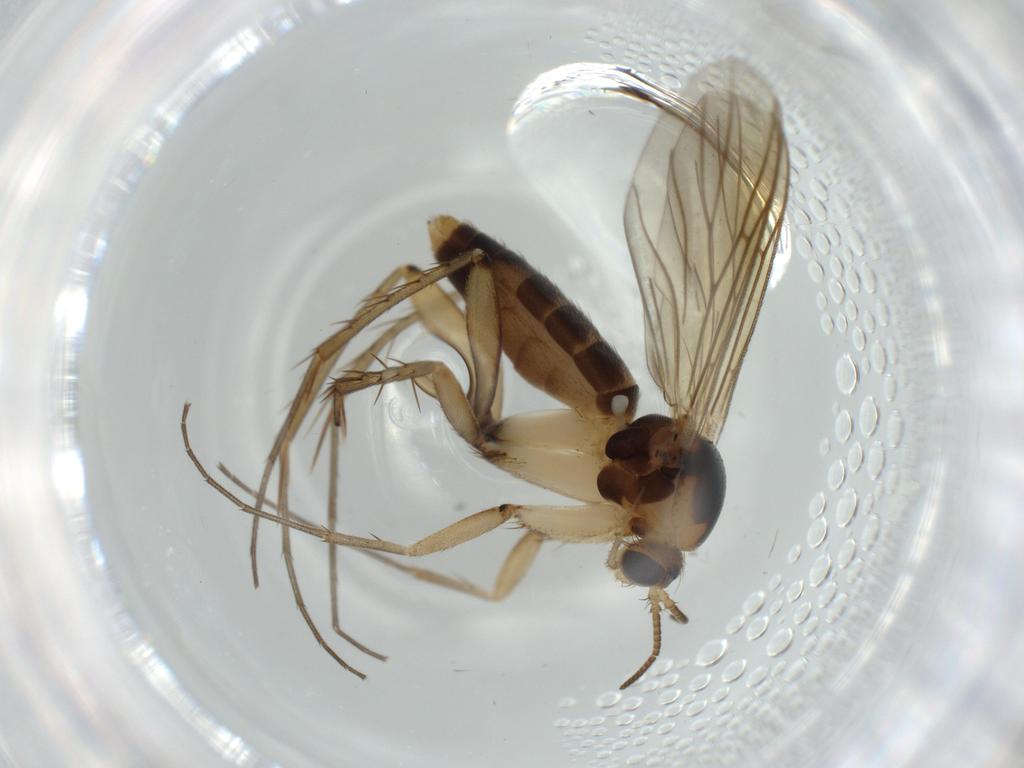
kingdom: Animalia
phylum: Arthropoda
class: Insecta
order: Diptera
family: Mycetophilidae
